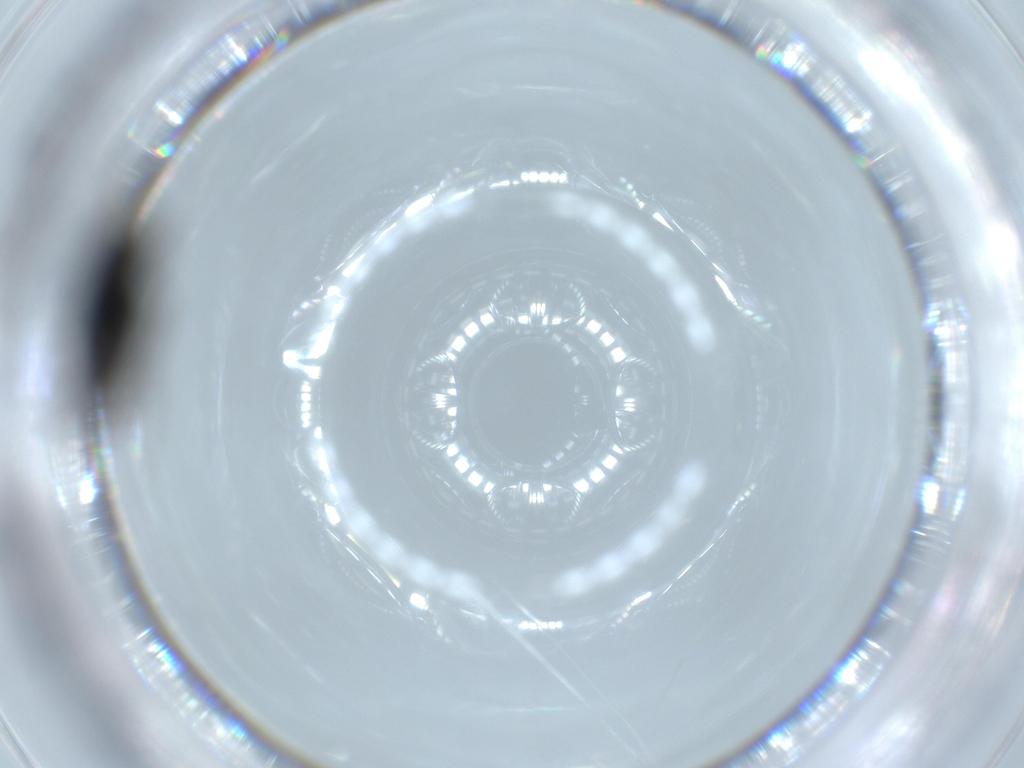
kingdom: Animalia
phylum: Arthropoda
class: Insecta
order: Diptera
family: Phoridae
